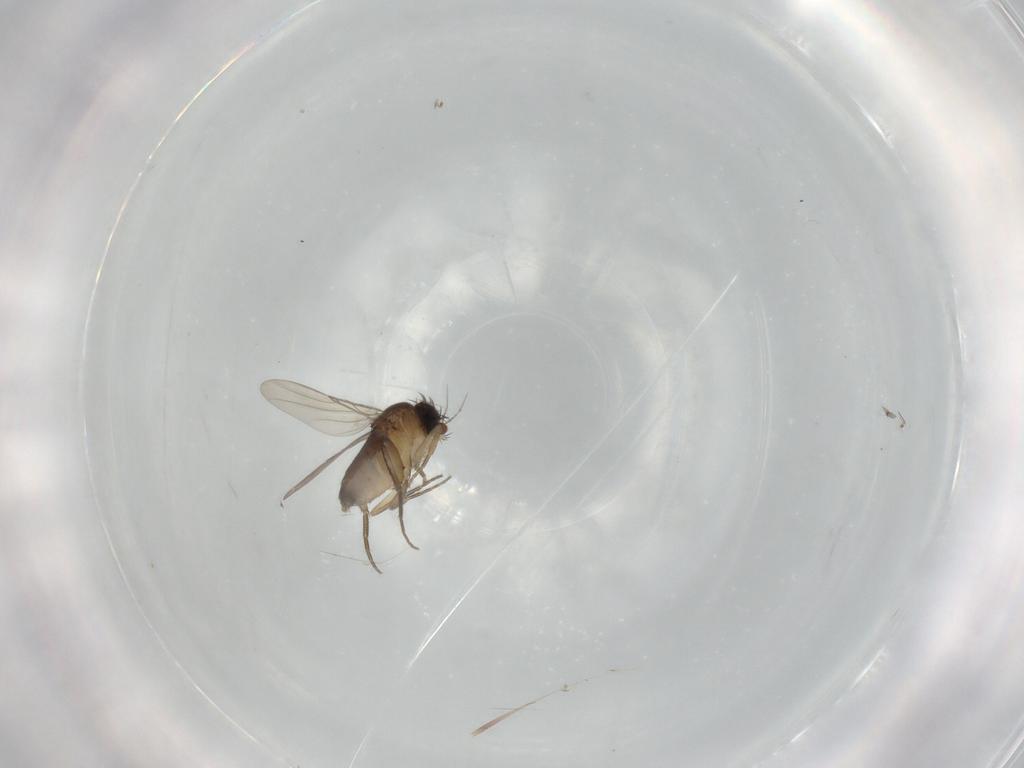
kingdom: Animalia
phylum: Arthropoda
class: Insecta
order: Diptera
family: Phoridae
